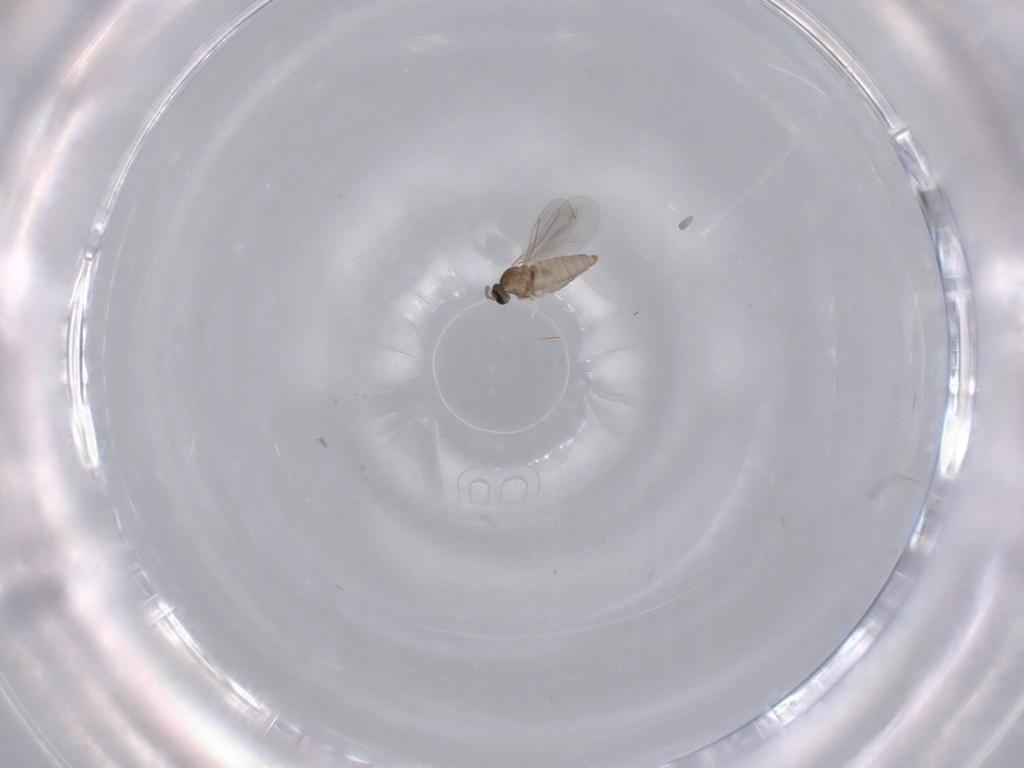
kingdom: Animalia
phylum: Arthropoda
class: Insecta
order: Diptera
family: Cecidomyiidae
